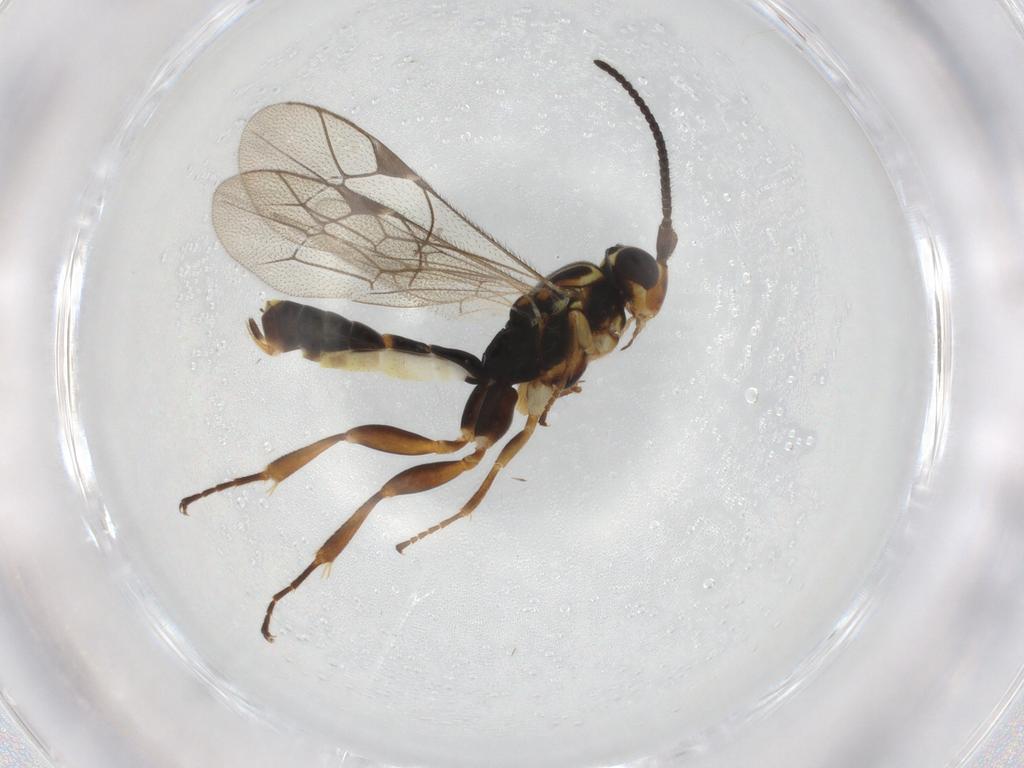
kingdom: Animalia
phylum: Arthropoda
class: Insecta
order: Hymenoptera
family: Ichneumonidae
